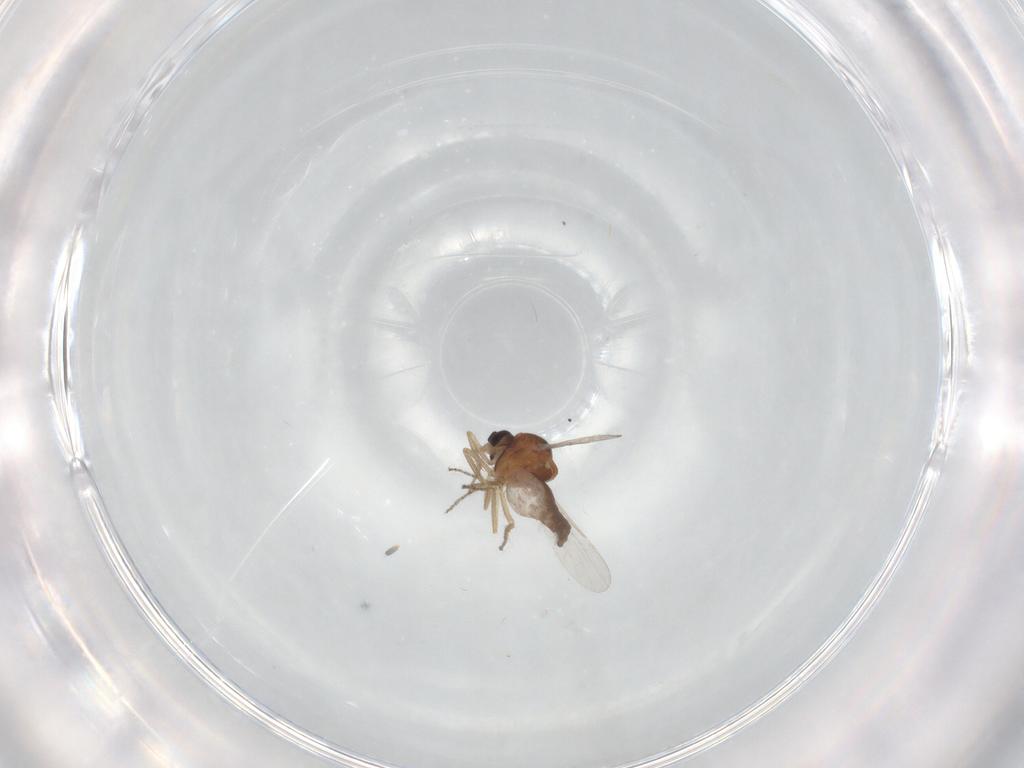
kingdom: Animalia
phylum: Arthropoda
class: Insecta
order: Diptera
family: Ceratopogonidae
